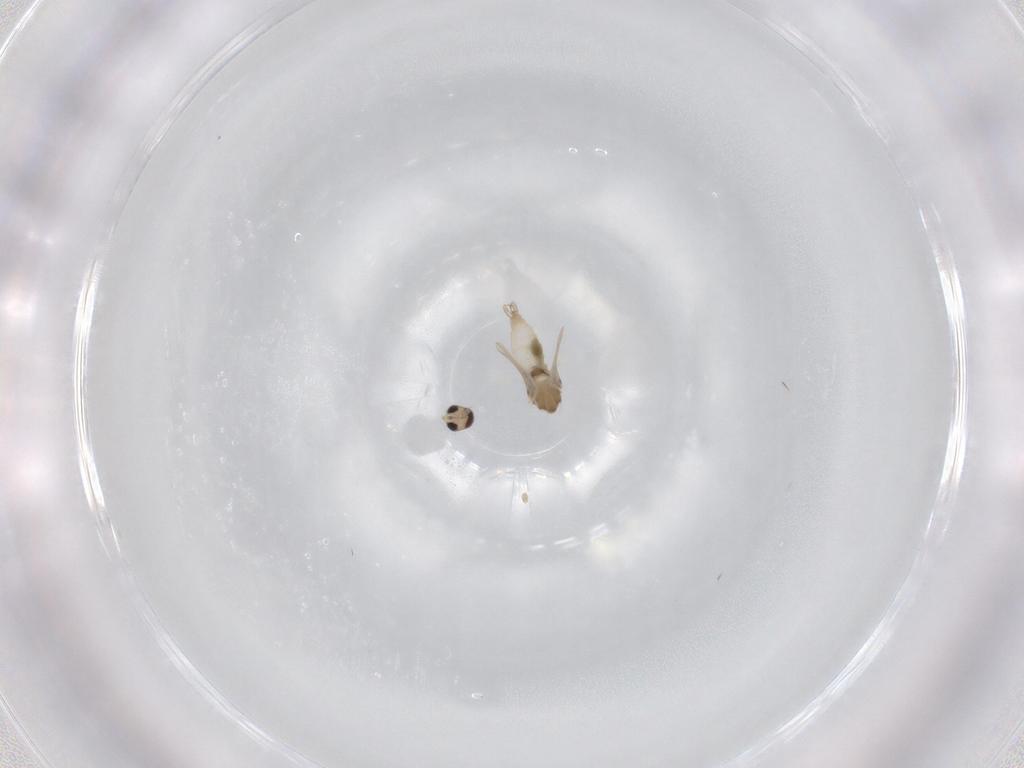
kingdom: Animalia
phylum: Arthropoda
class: Insecta
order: Diptera
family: Cecidomyiidae
